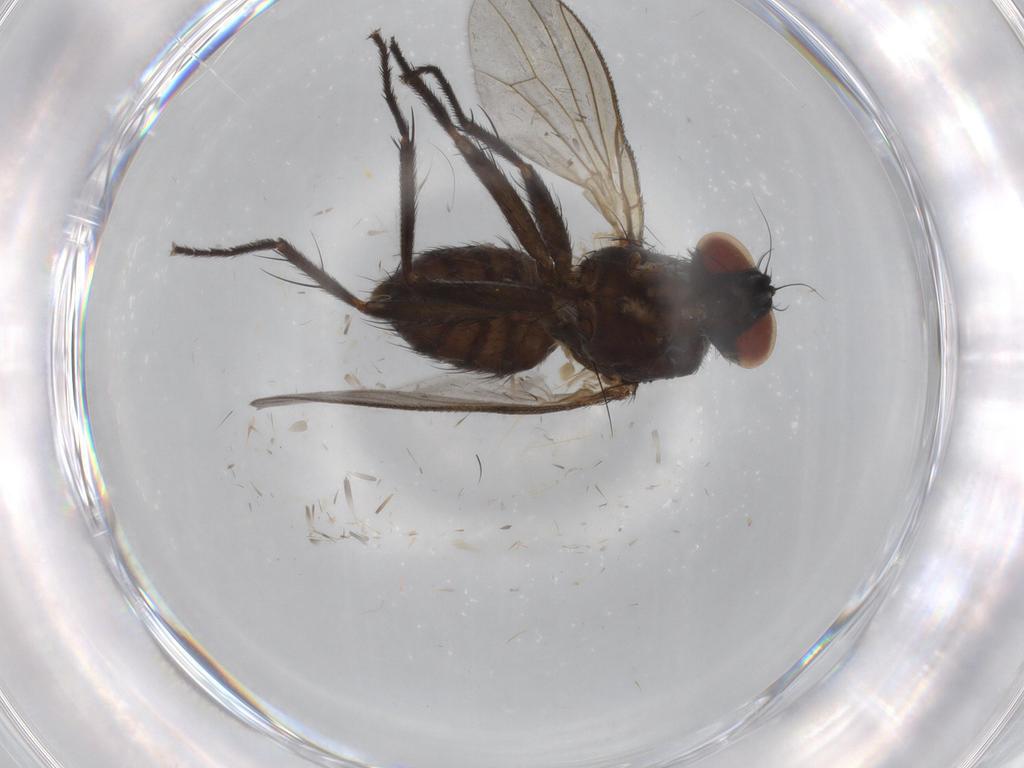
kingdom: Animalia
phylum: Arthropoda
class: Insecta
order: Diptera
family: Muscidae
